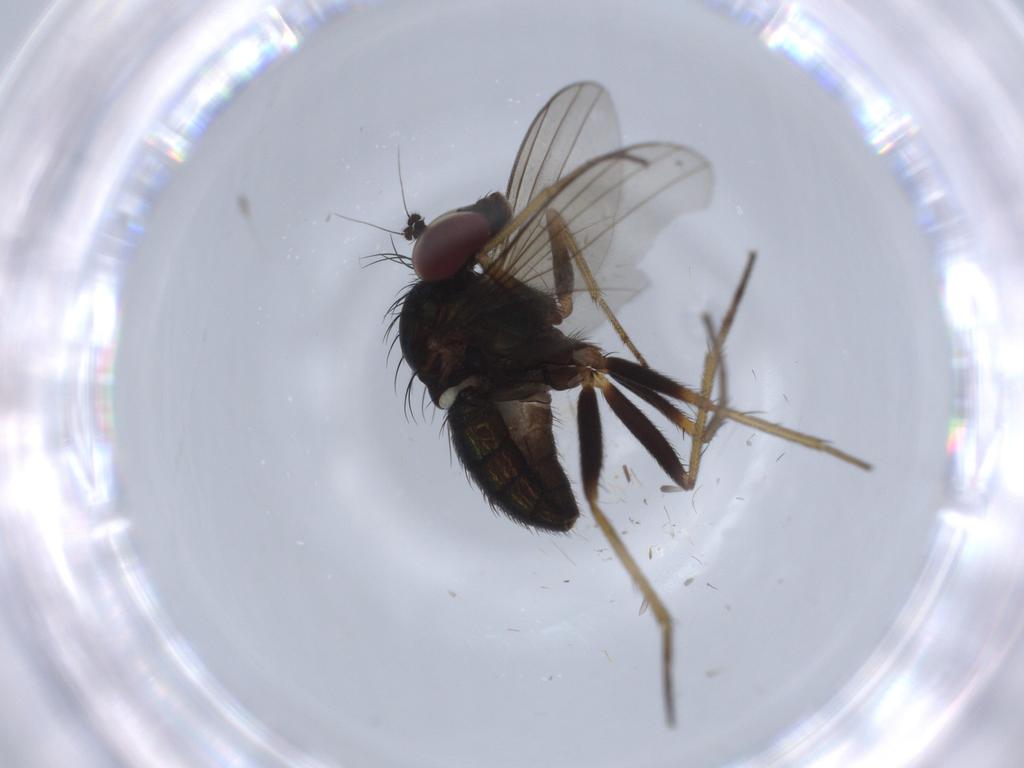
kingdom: Animalia
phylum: Arthropoda
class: Insecta
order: Diptera
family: Dolichopodidae
